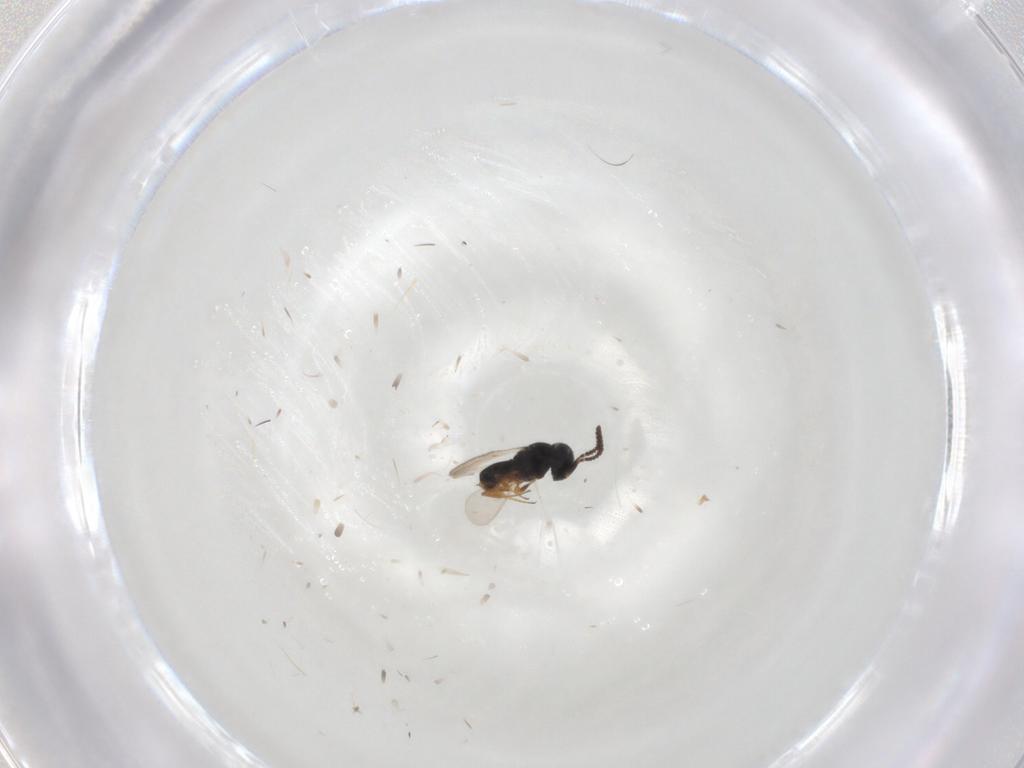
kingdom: Animalia
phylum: Arthropoda
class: Insecta
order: Hymenoptera
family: Scelionidae
